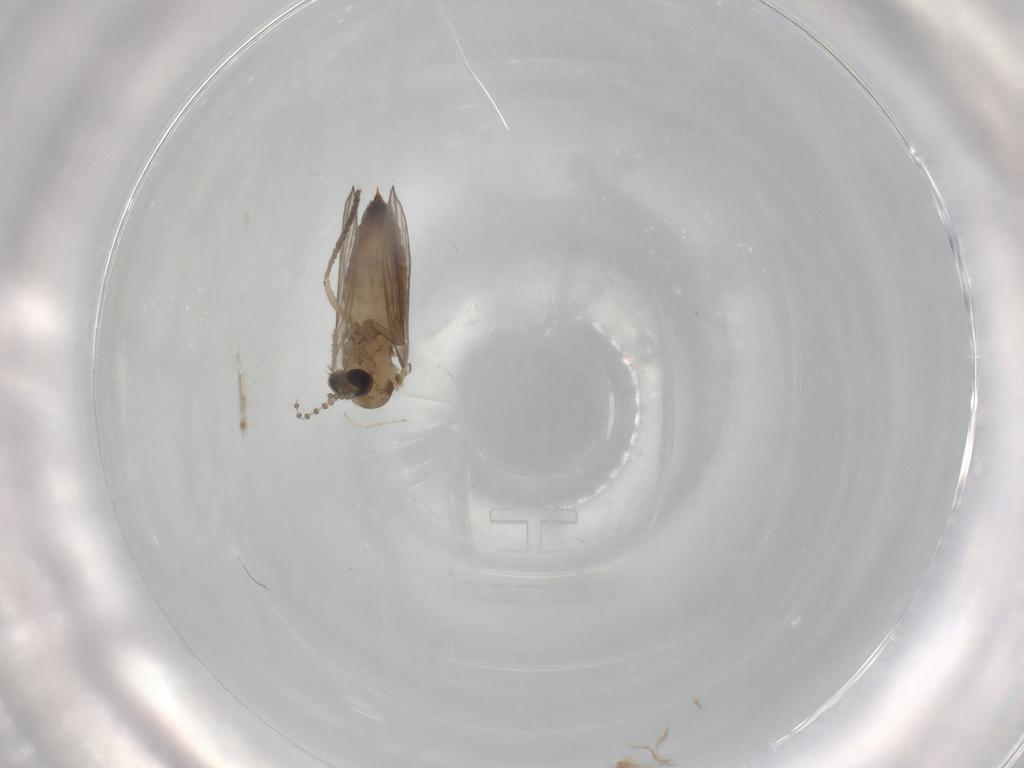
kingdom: Animalia
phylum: Arthropoda
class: Insecta
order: Diptera
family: Psychodidae
